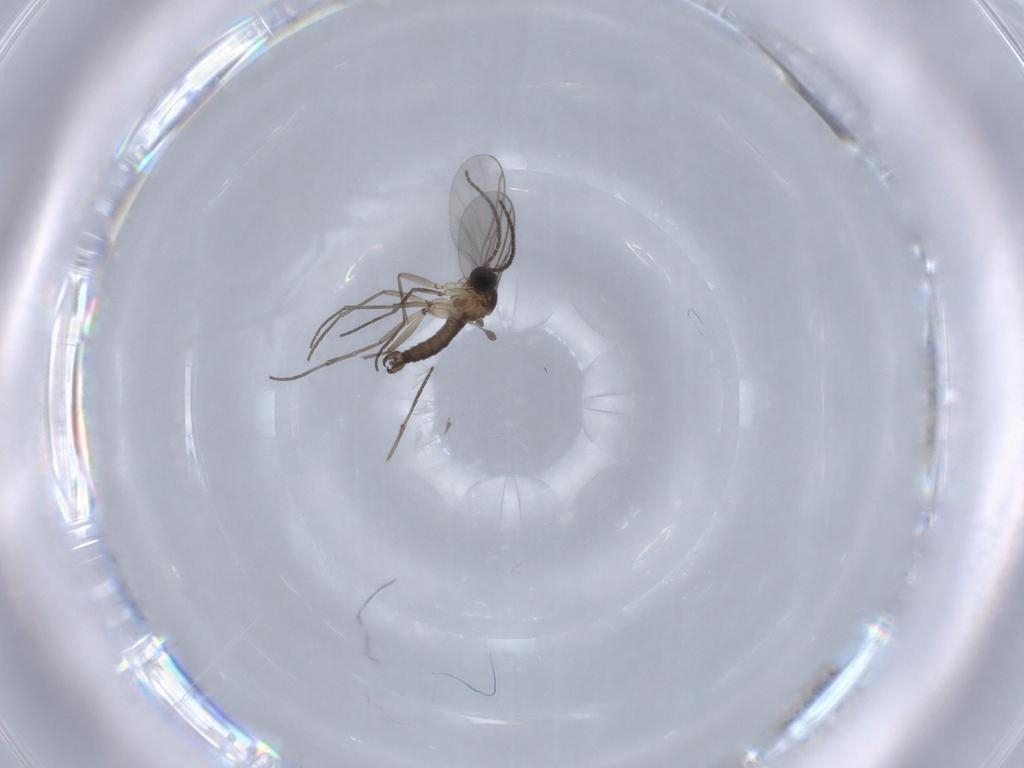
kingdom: Animalia
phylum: Arthropoda
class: Insecta
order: Diptera
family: Sciaridae
